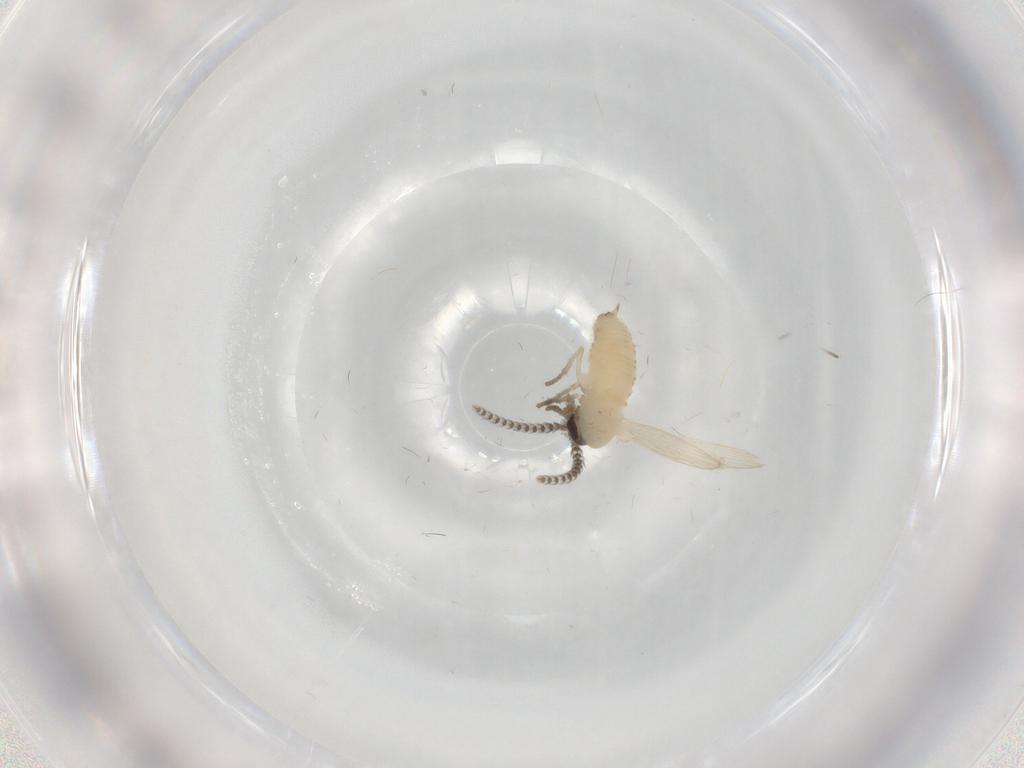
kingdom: Animalia
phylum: Arthropoda
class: Insecta
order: Diptera
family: Psychodidae
